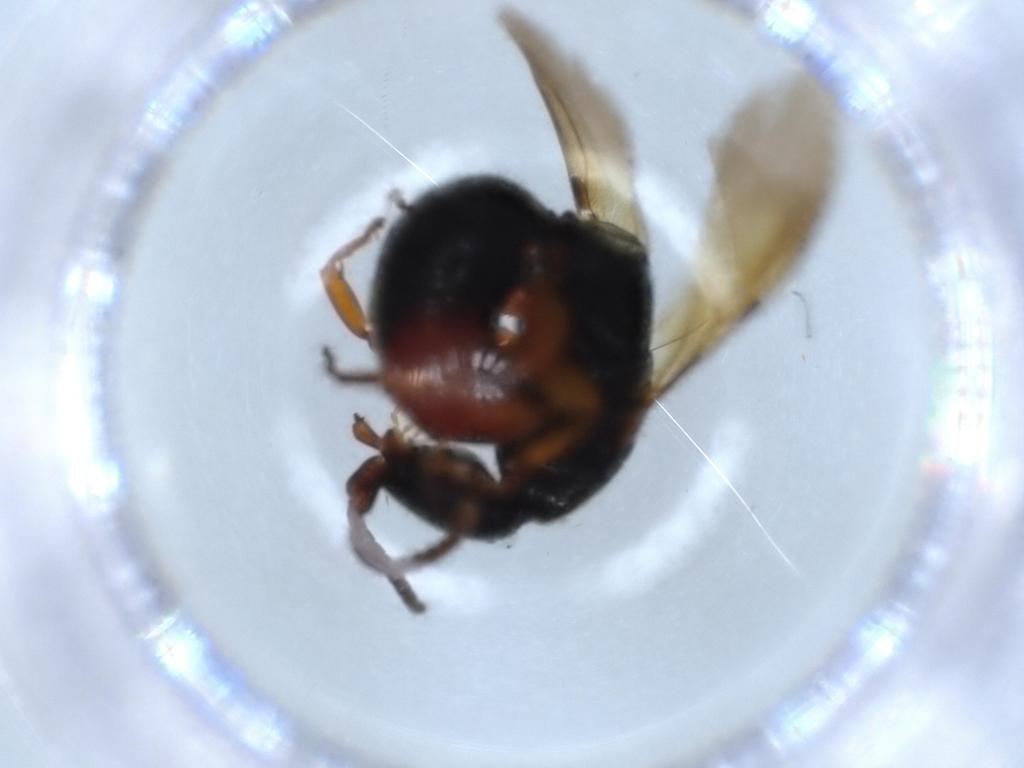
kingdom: Animalia
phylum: Arthropoda
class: Insecta
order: Hymenoptera
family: Bethylidae
